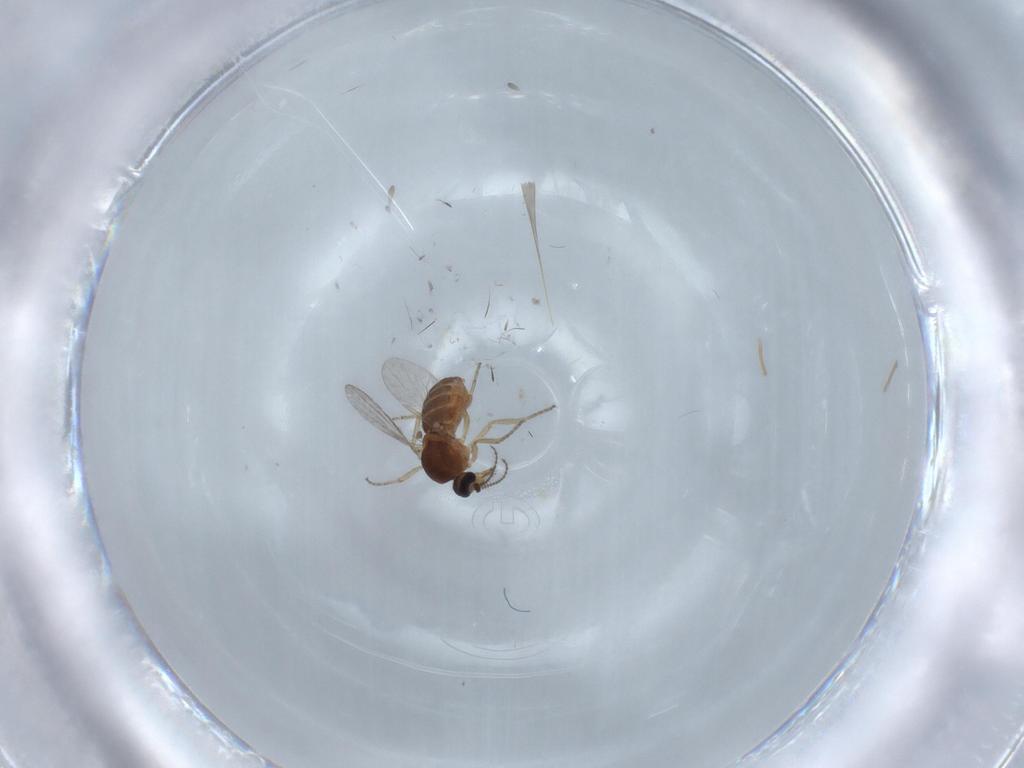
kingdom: Animalia
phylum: Arthropoda
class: Insecta
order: Diptera
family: Ceratopogonidae
